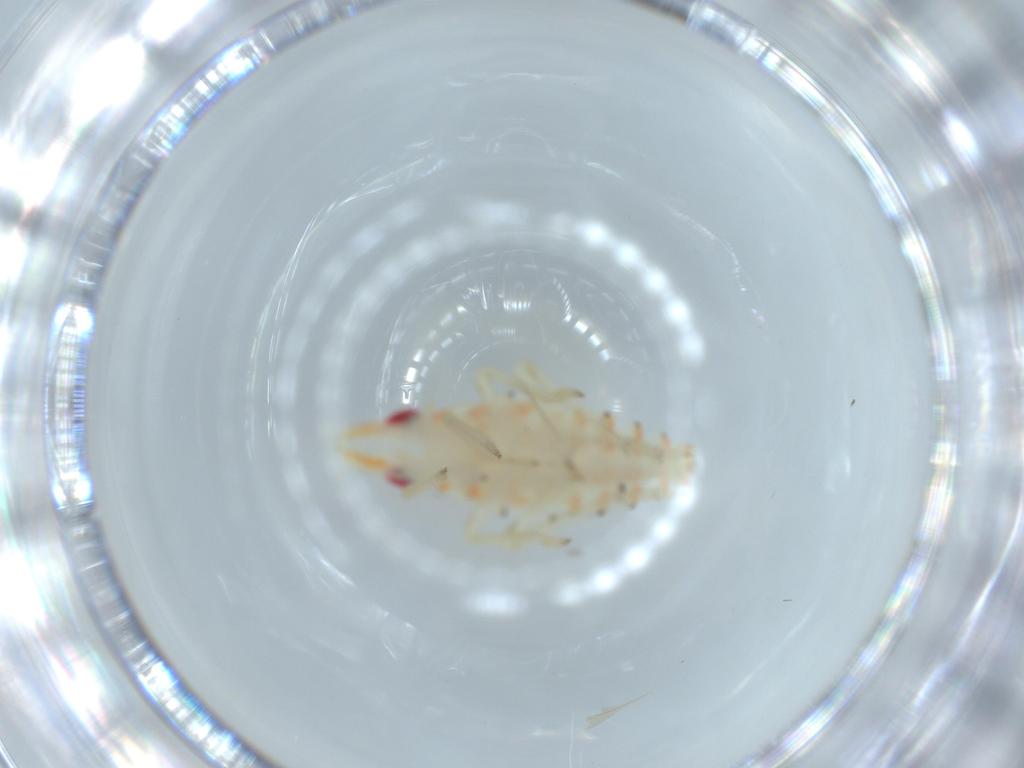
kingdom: Animalia
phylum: Arthropoda
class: Insecta
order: Hemiptera
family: Tropiduchidae
